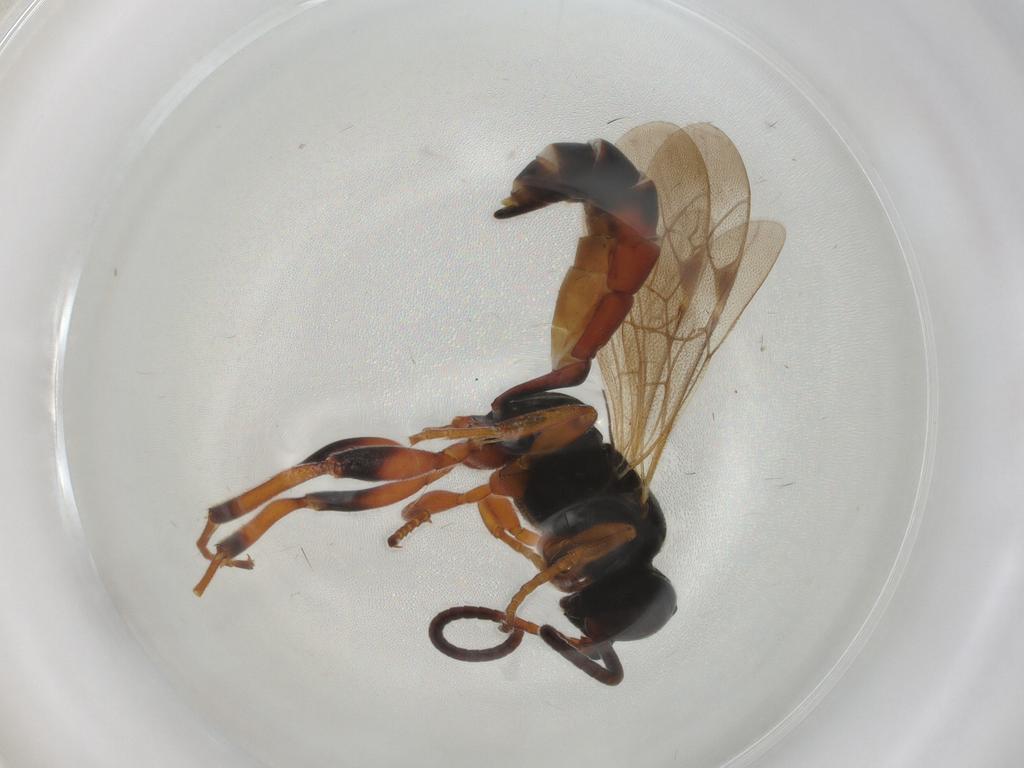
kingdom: Animalia
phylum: Arthropoda
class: Insecta
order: Hymenoptera
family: Ichneumonidae
